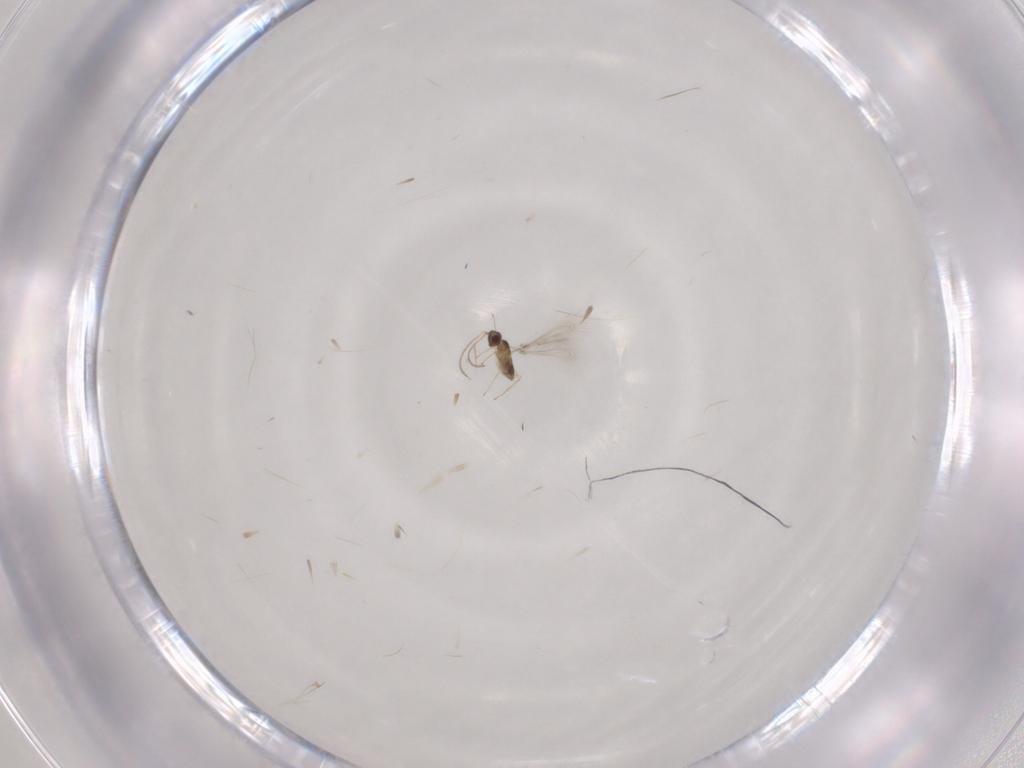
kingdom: Animalia
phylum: Arthropoda
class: Insecta
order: Hymenoptera
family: Mymaridae
